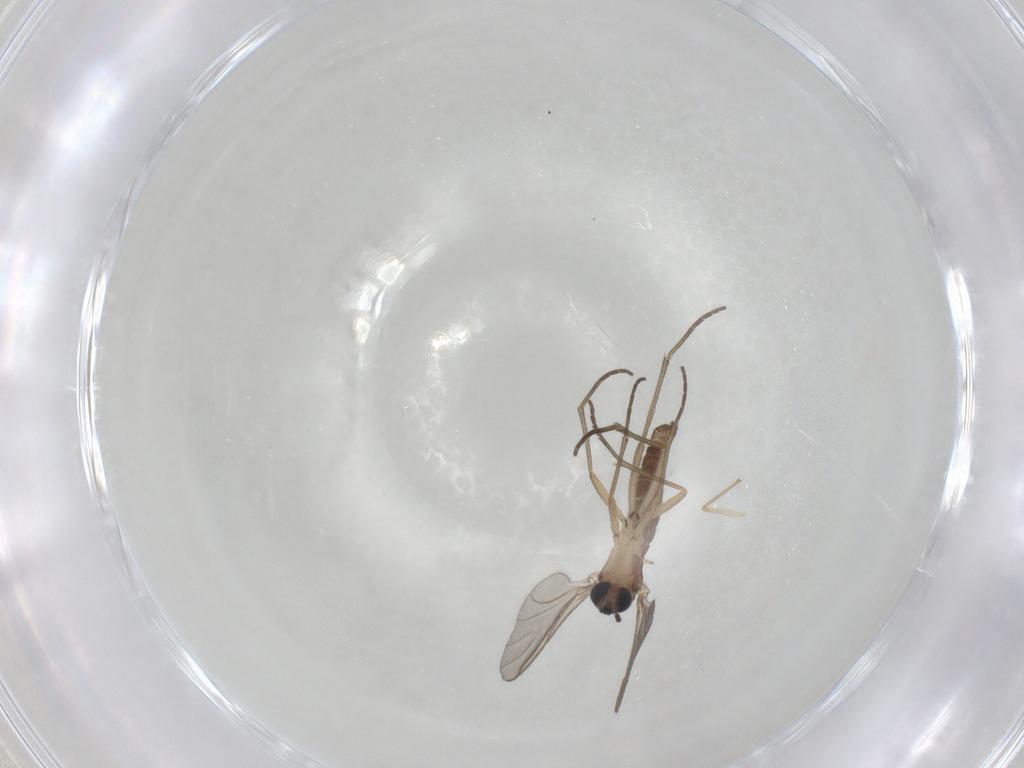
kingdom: Animalia
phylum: Arthropoda
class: Insecta
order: Diptera
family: Sciaridae
